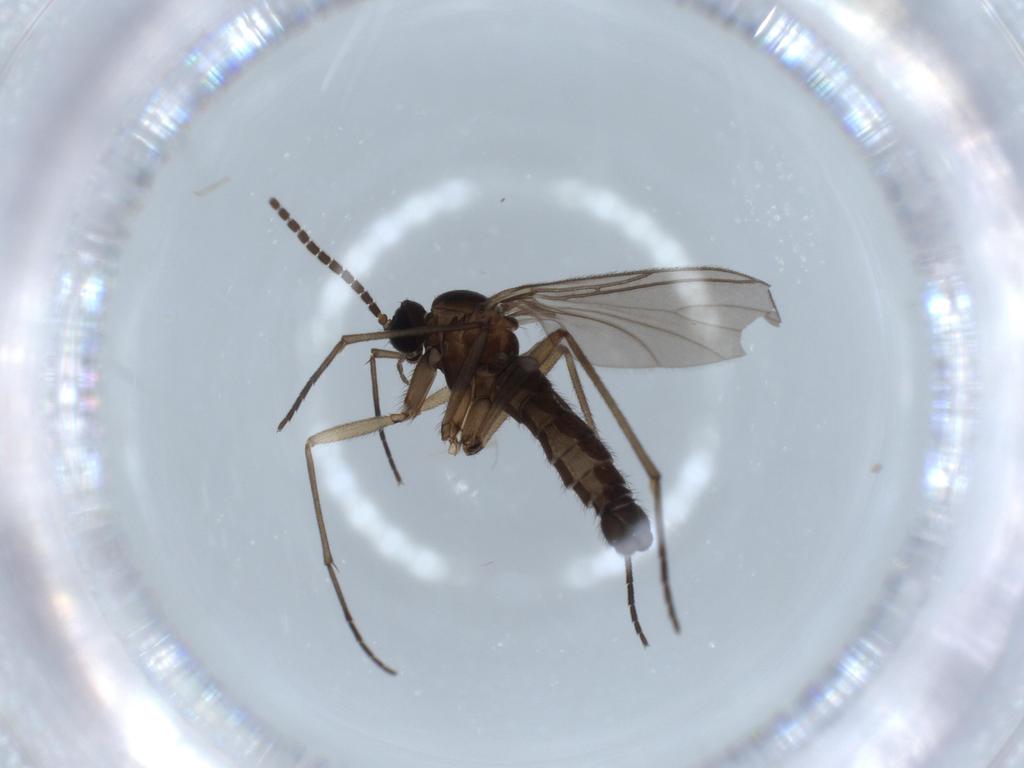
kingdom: Animalia
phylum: Arthropoda
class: Insecta
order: Diptera
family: Sciaridae
